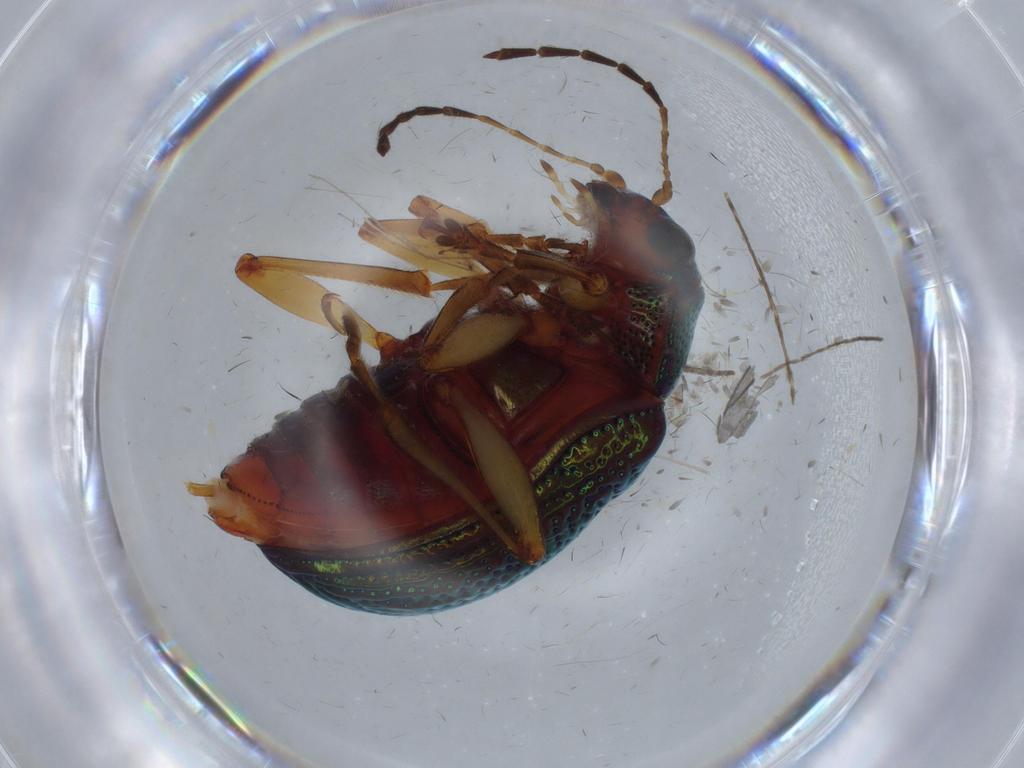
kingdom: Animalia
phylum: Arthropoda
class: Insecta
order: Coleoptera
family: Chrysomelidae
